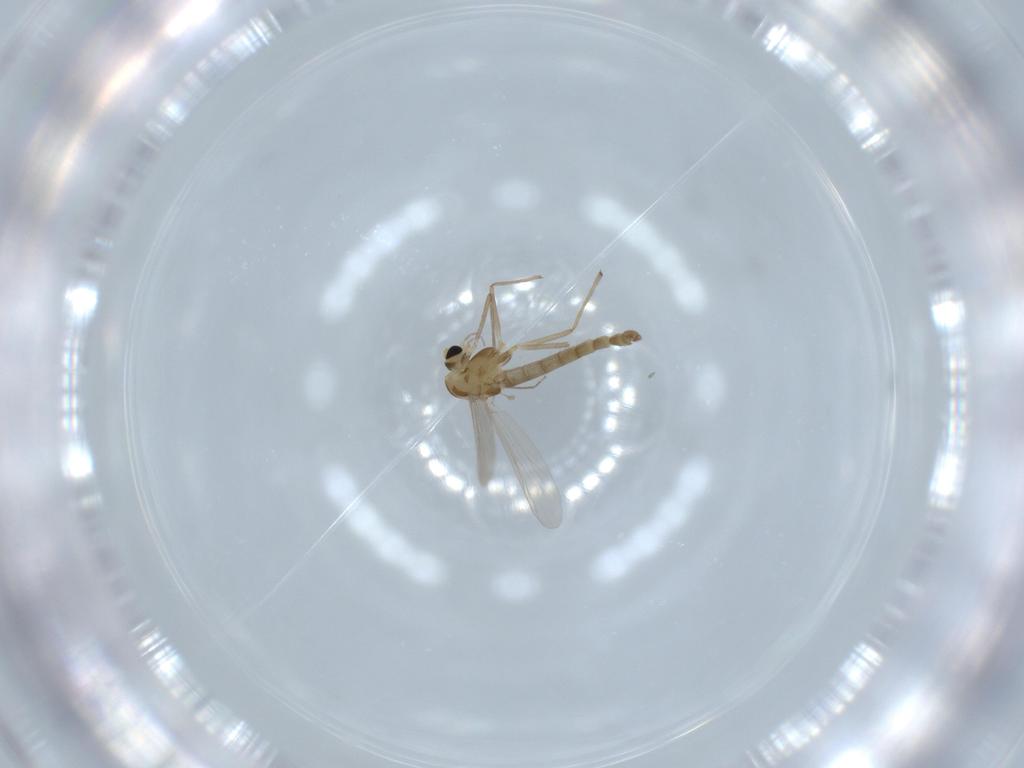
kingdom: Animalia
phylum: Arthropoda
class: Insecta
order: Diptera
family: Chironomidae
